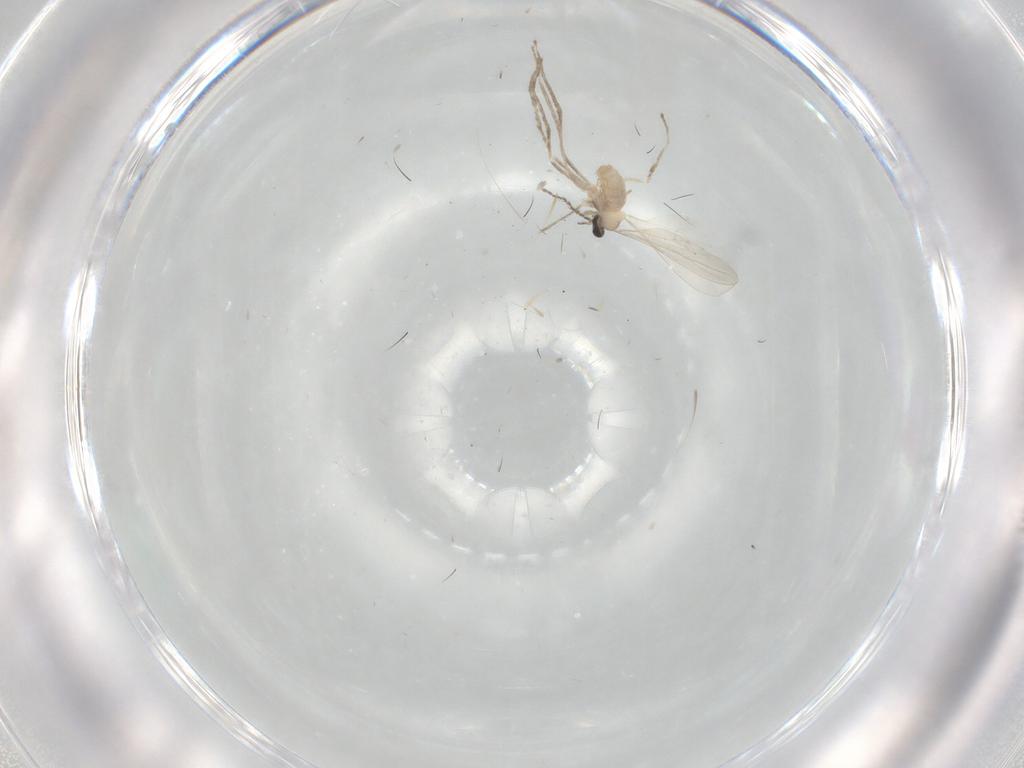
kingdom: Animalia
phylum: Arthropoda
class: Insecta
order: Diptera
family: Cecidomyiidae
